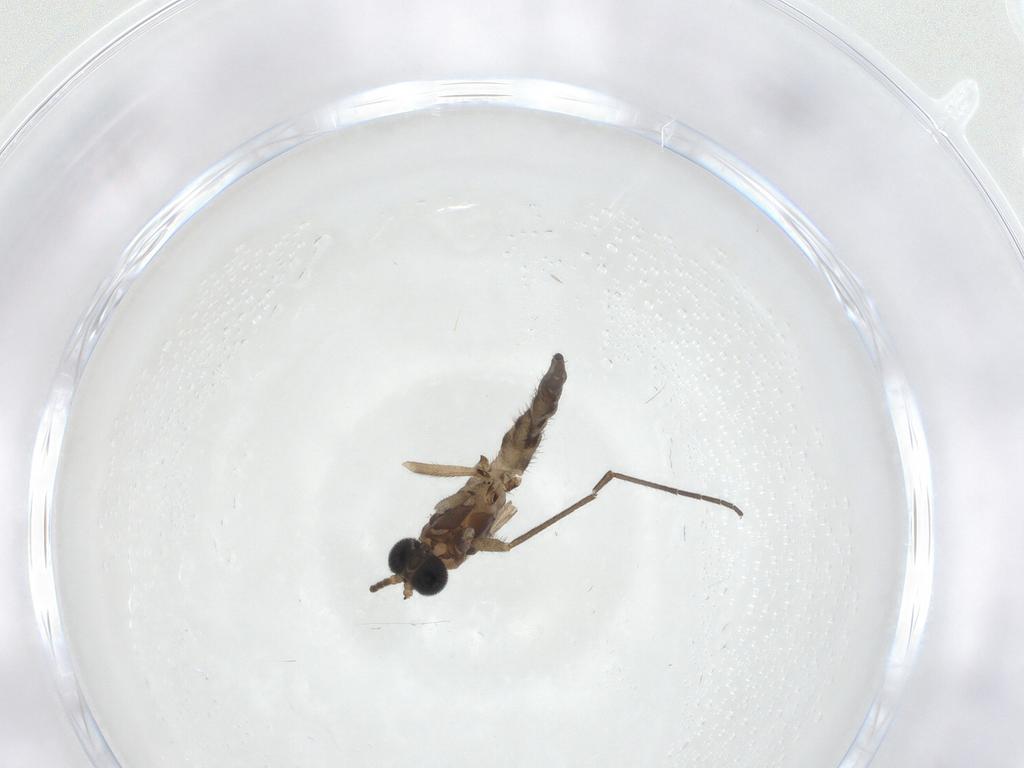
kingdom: Animalia
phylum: Arthropoda
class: Insecta
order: Diptera
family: Sciaridae
